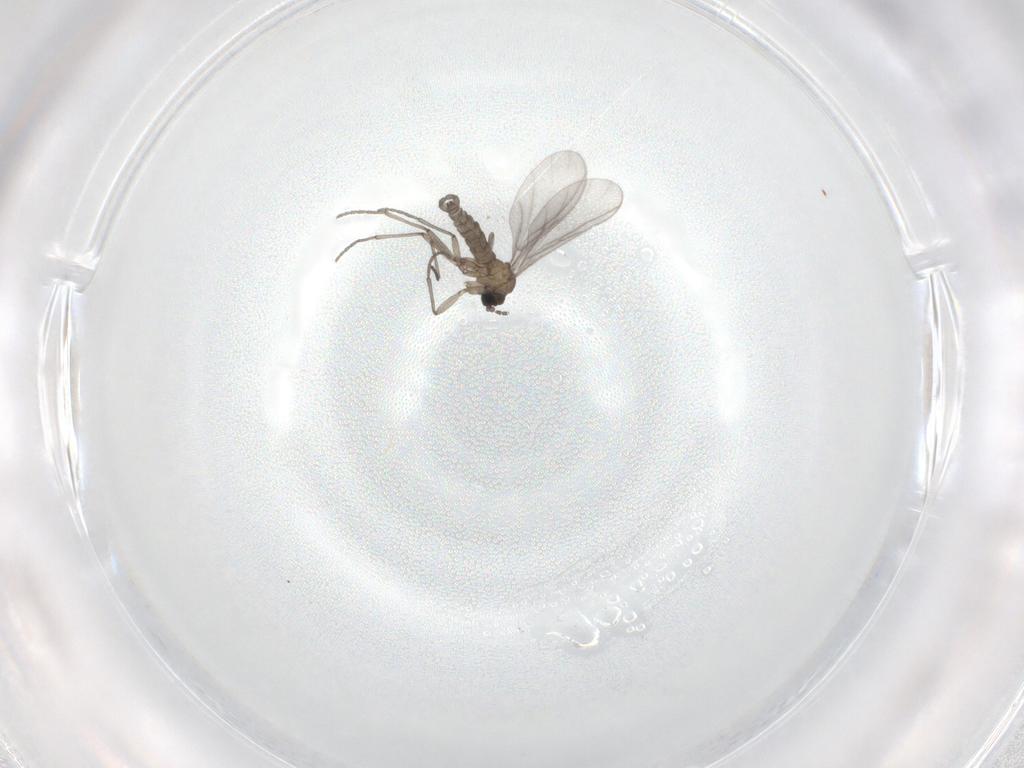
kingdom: Animalia
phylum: Arthropoda
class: Insecta
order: Diptera
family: Sciaridae
